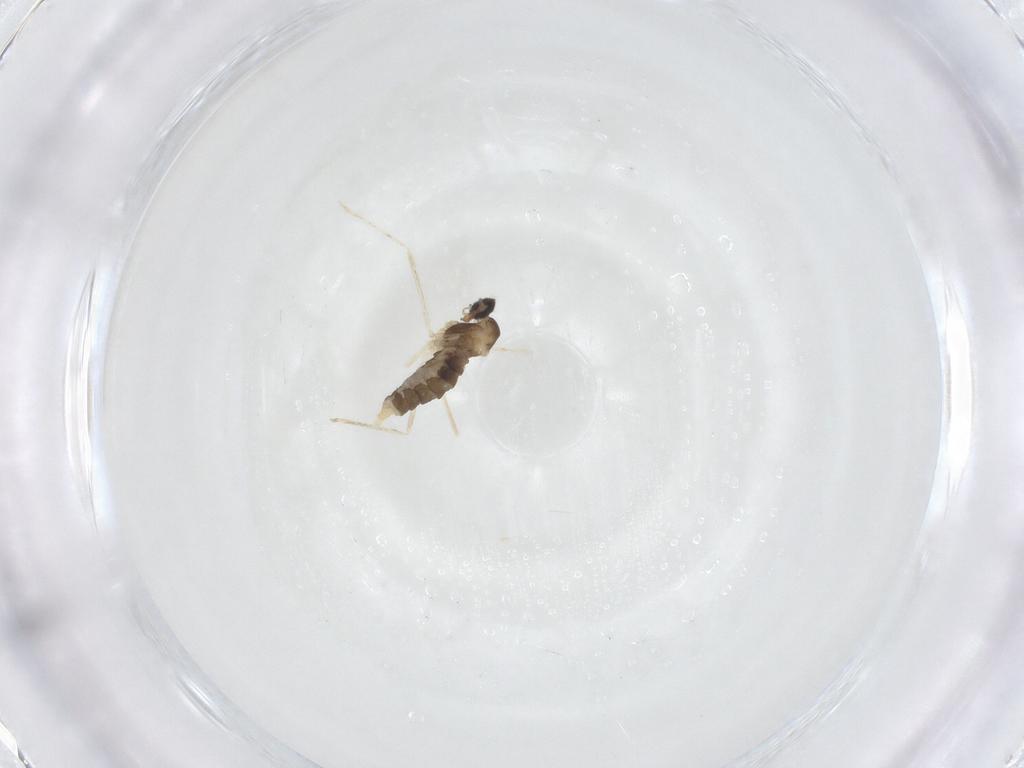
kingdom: Animalia
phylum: Arthropoda
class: Insecta
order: Diptera
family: Cecidomyiidae
